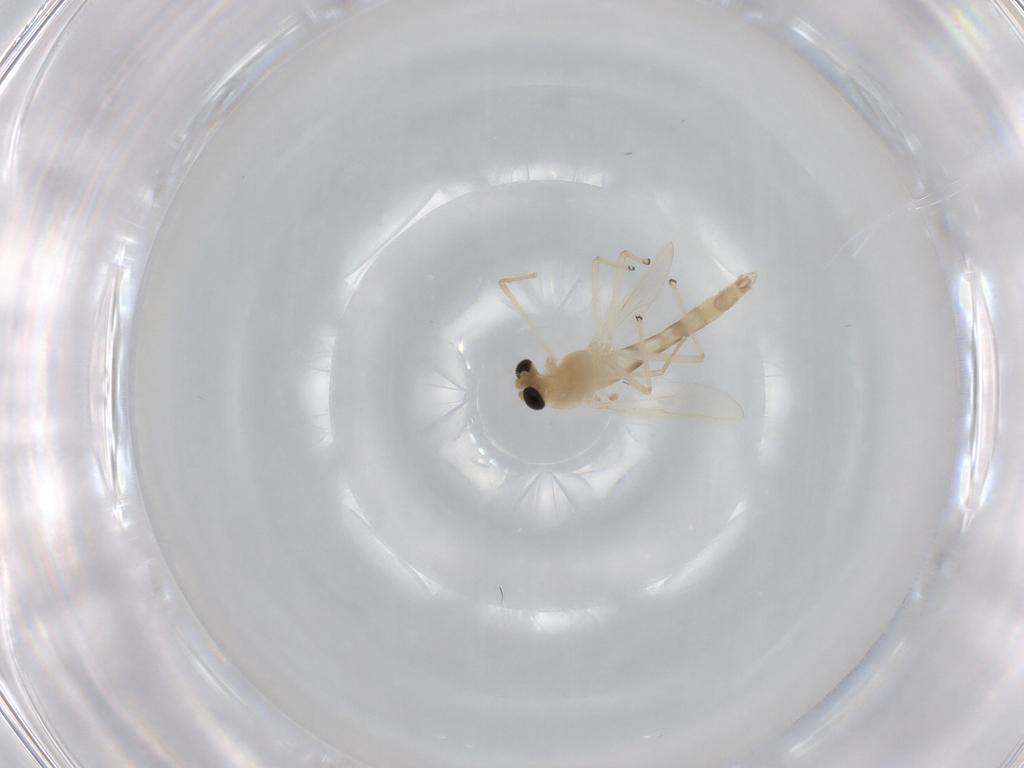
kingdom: Animalia
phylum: Arthropoda
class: Insecta
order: Diptera
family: Chironomidae
